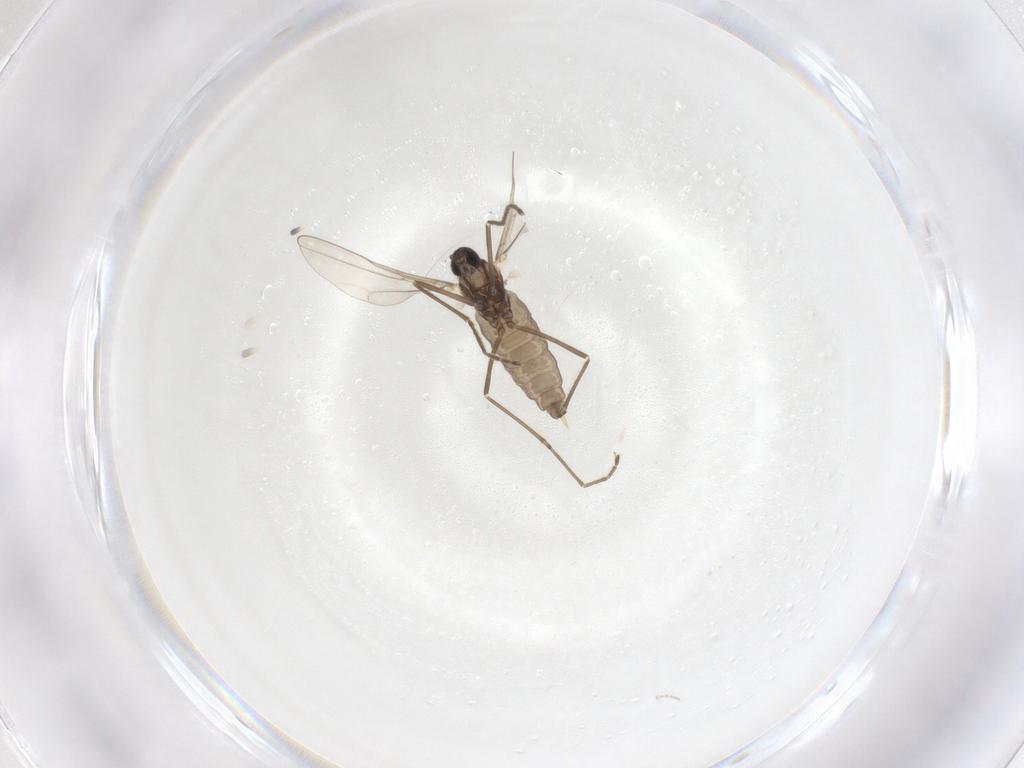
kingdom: Animalia
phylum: Arthropoda
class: Insecta
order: Diptera
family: Cecidomyiidae
